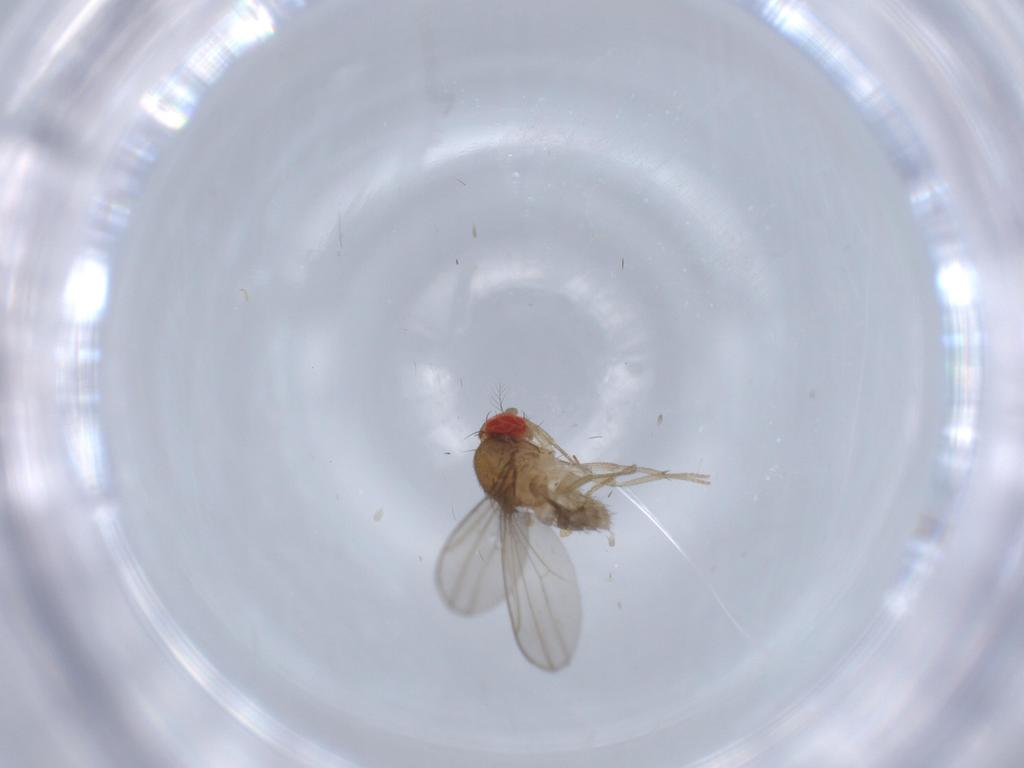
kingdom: Animalia
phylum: Arthropoda
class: Insecta
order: Diptera
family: Drosophilidae
